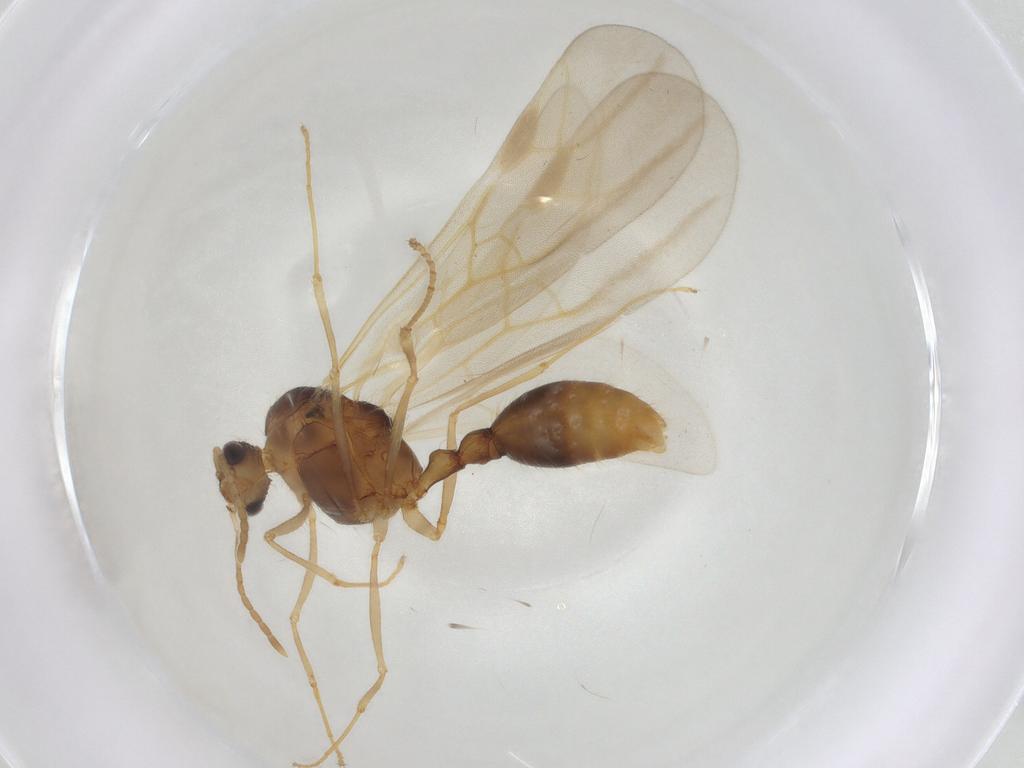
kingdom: Animalia
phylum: Arthropoda
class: Insecta
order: Hymenoptera
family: Formicidae
